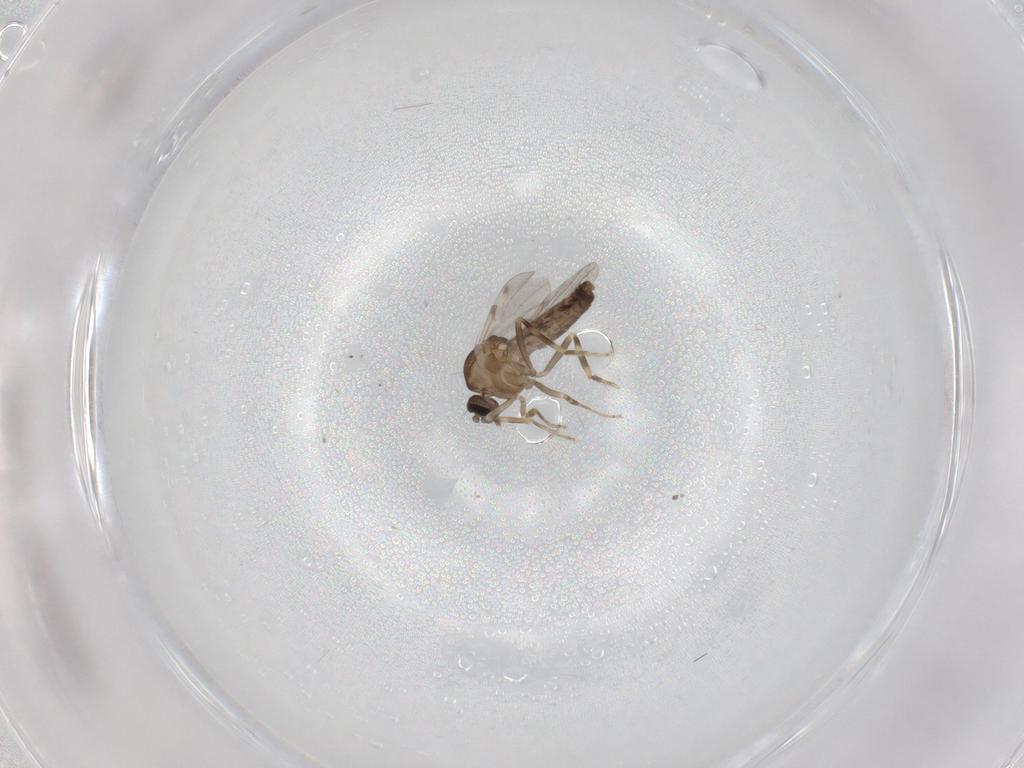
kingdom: Animalia
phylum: Arthropoda
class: Insecta
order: Diptera
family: Ceratopogonidae
